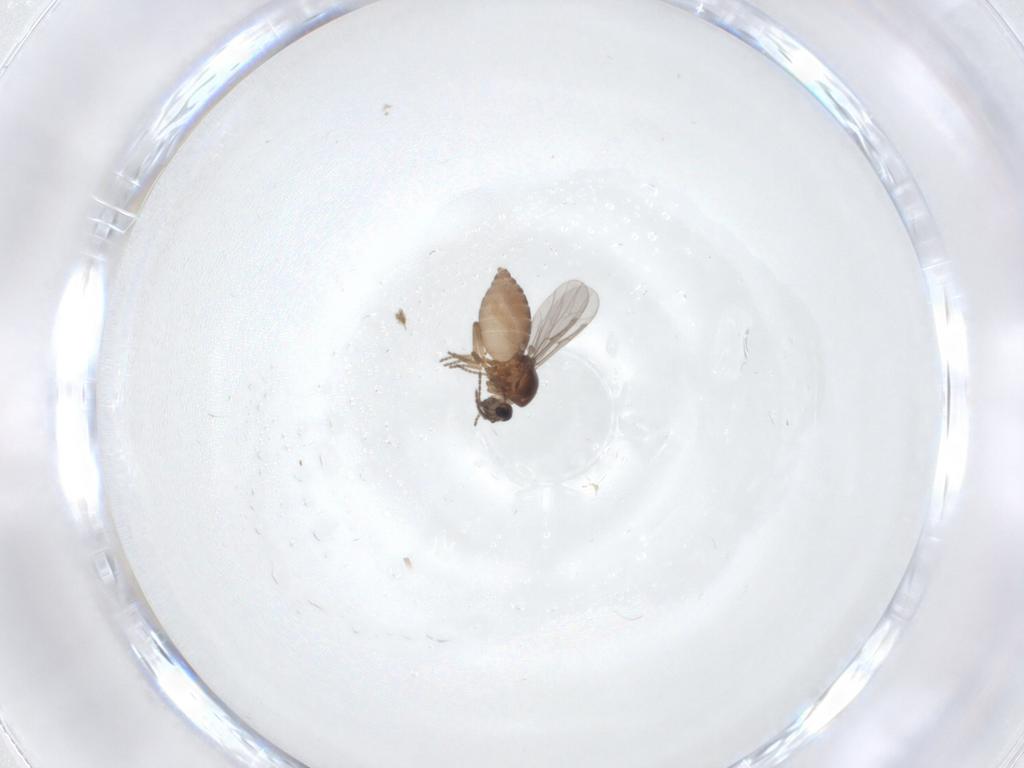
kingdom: Animalia
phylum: Arthropoda
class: Insecta
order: Diptera
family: Ceratopogonidae
